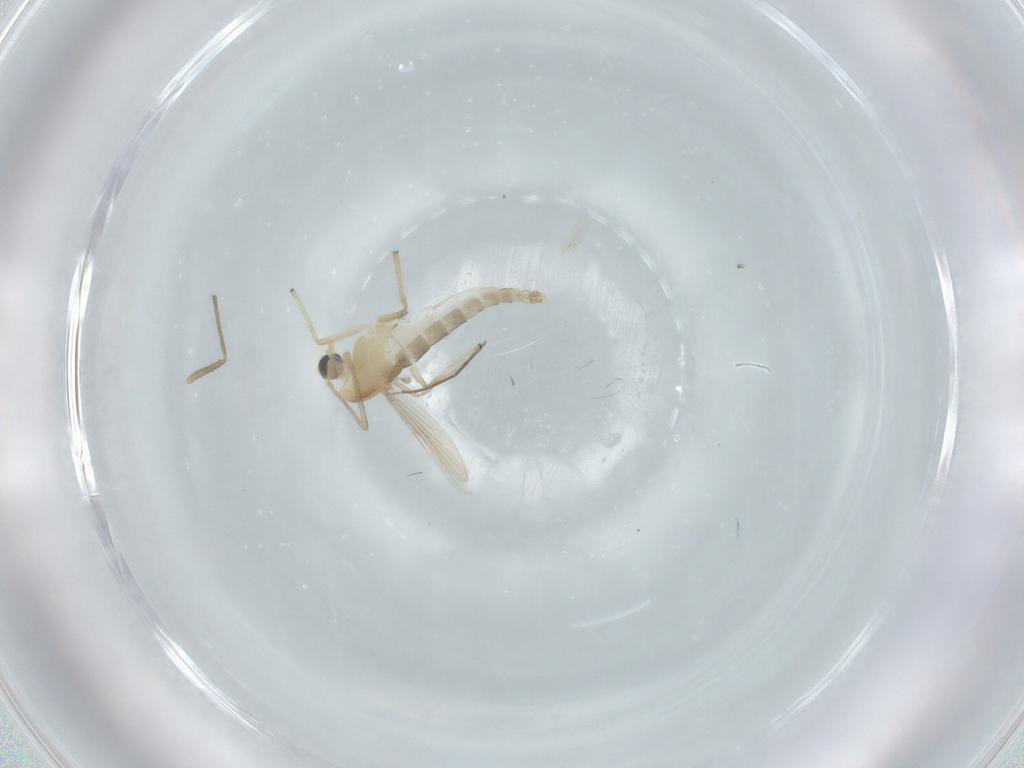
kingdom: Animalia
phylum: Arthropoda
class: Insecta
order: Diptera
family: Chironomidae
